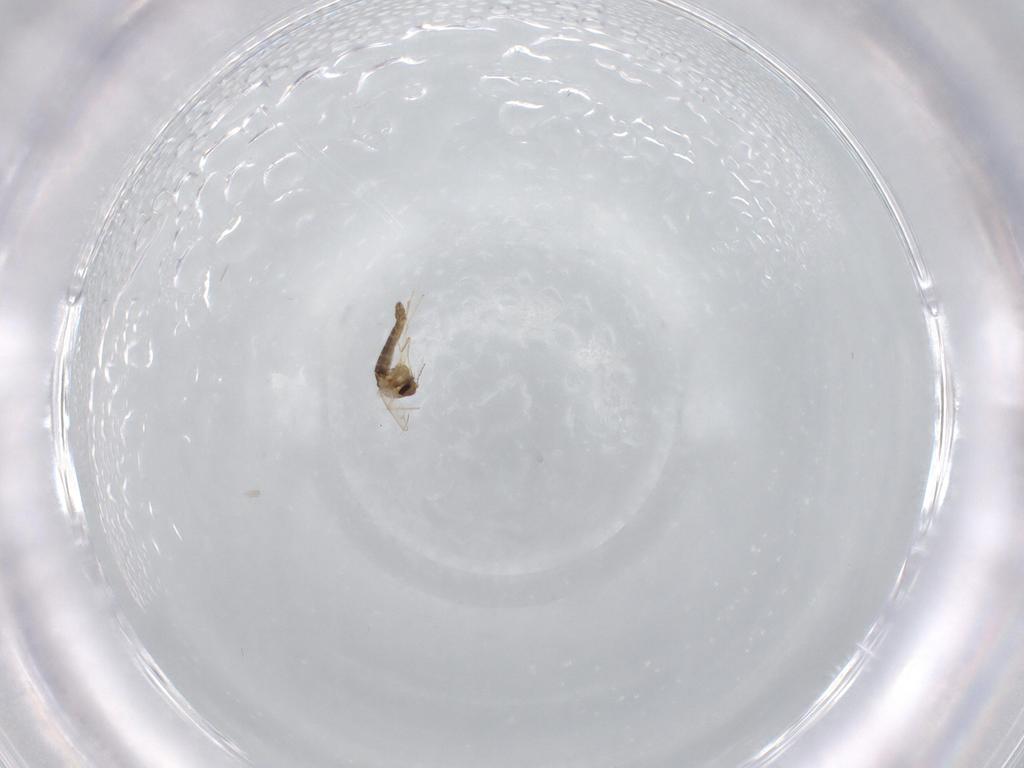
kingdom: Animalia
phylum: Arthropoda
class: Insecta
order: Diptera
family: Chironomidae
